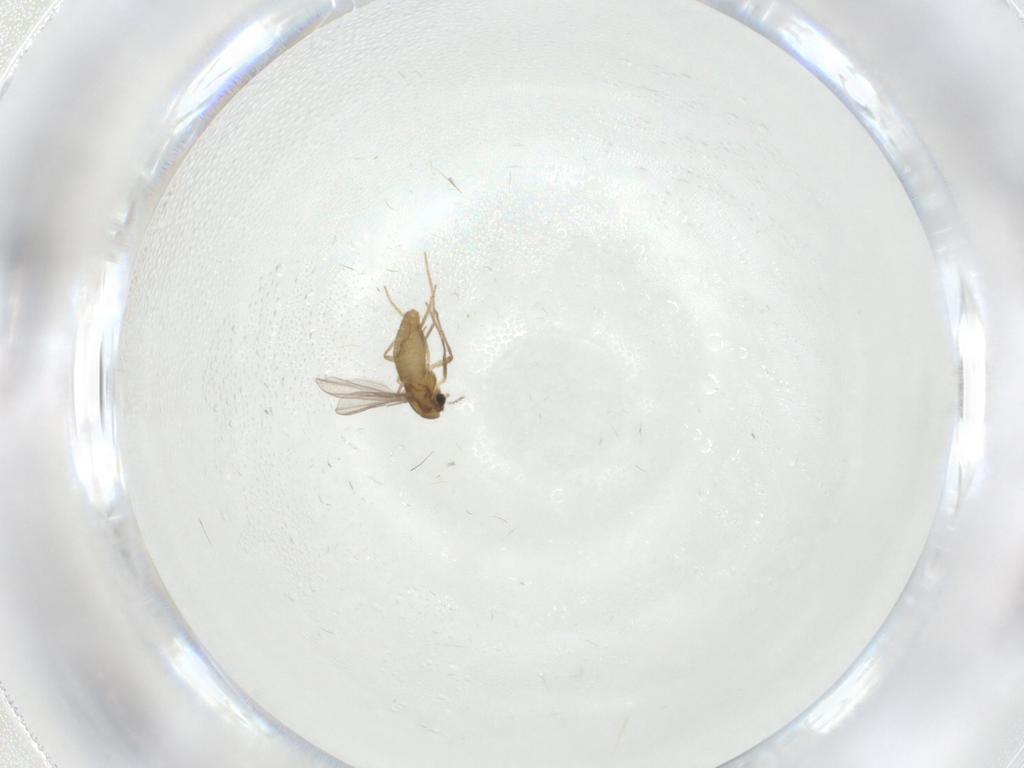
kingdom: Animalia
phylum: Arthropoda
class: Insecta
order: Diptera
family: Chironomidae
